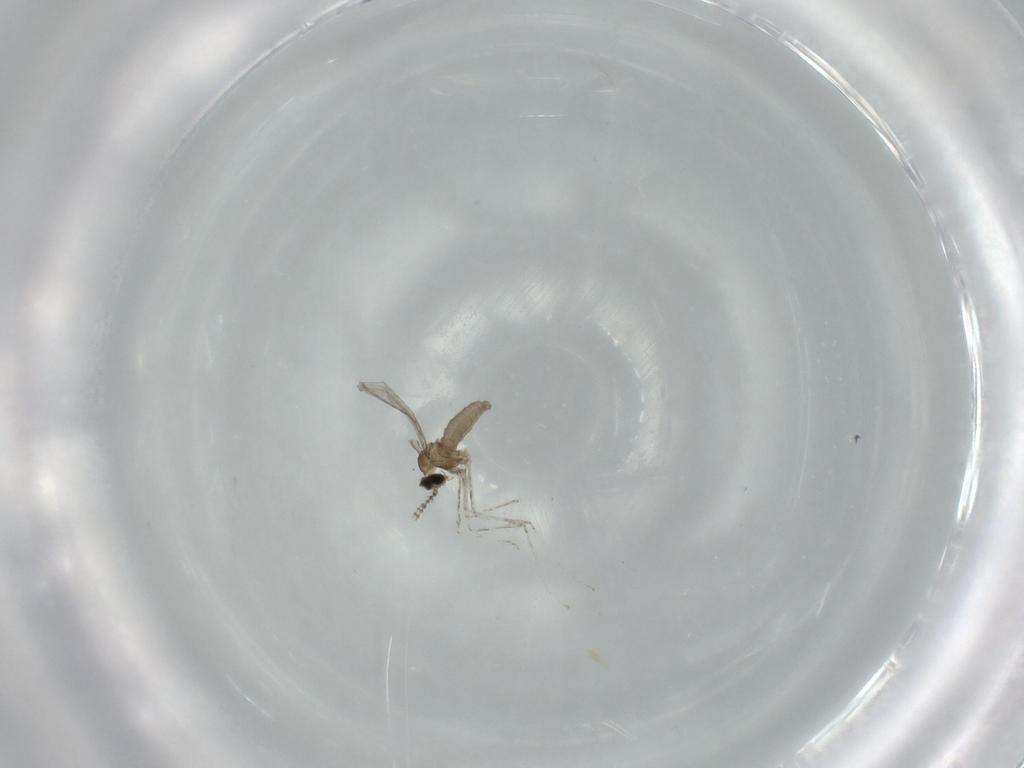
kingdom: Animalia
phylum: Arthropoda
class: Insecta
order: Diptera
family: Cecidomyiidae
